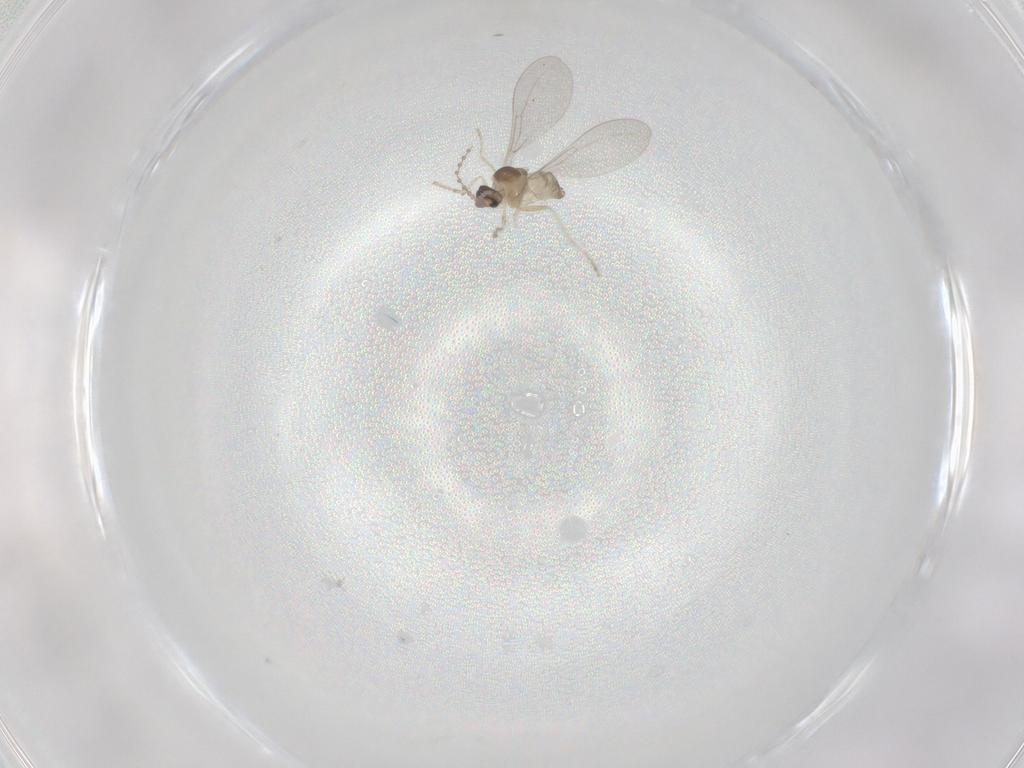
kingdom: Animalia
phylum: Arthropoda
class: Insecta
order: Diptera
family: Cecidomyiidae
